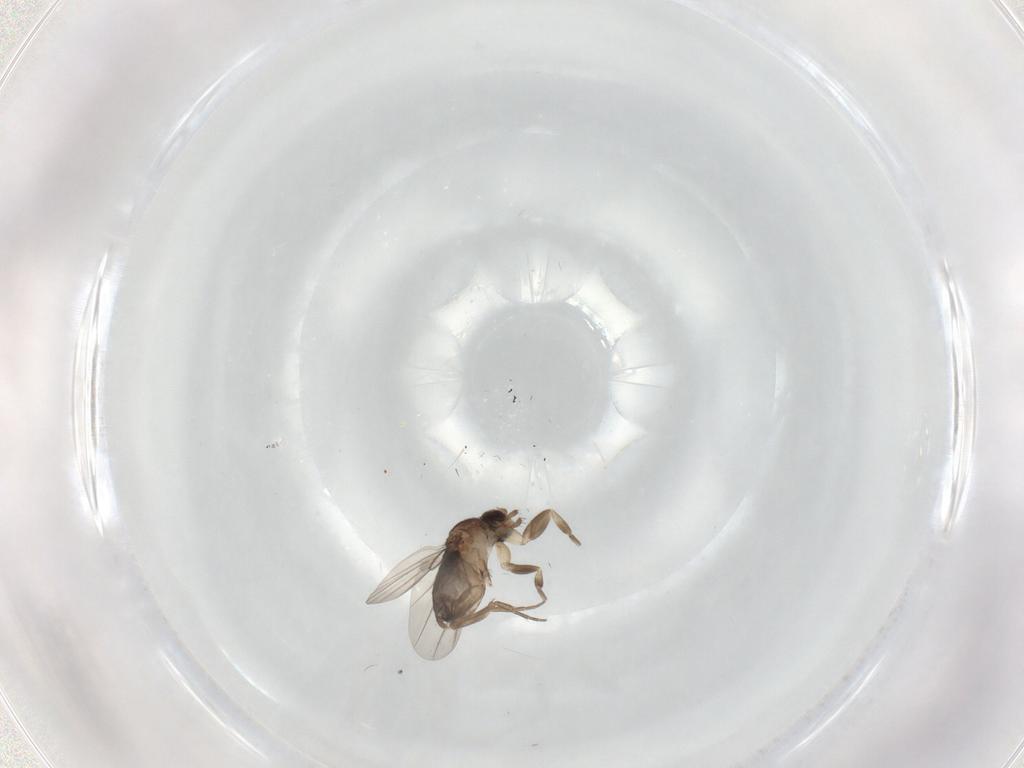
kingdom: Animalia
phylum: Arthropoda
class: Insecta
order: Diptera
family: Phoridae
